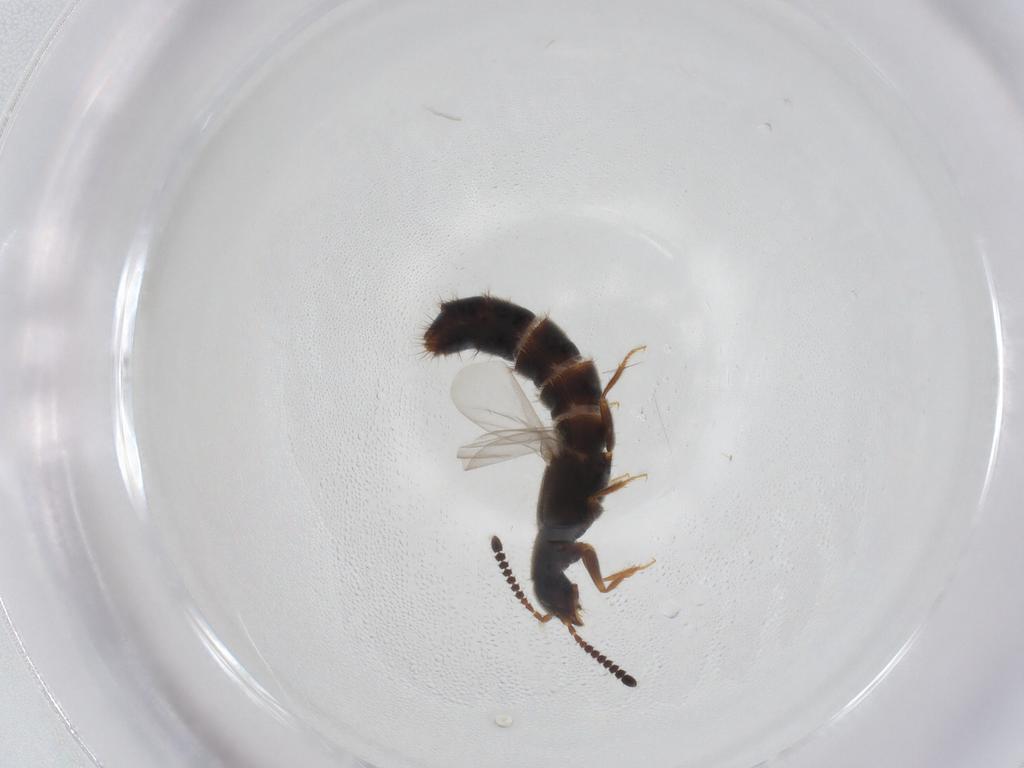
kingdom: Animalia
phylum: Arthropoda
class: Insecta
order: Coleoptera
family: Staphylinidae
